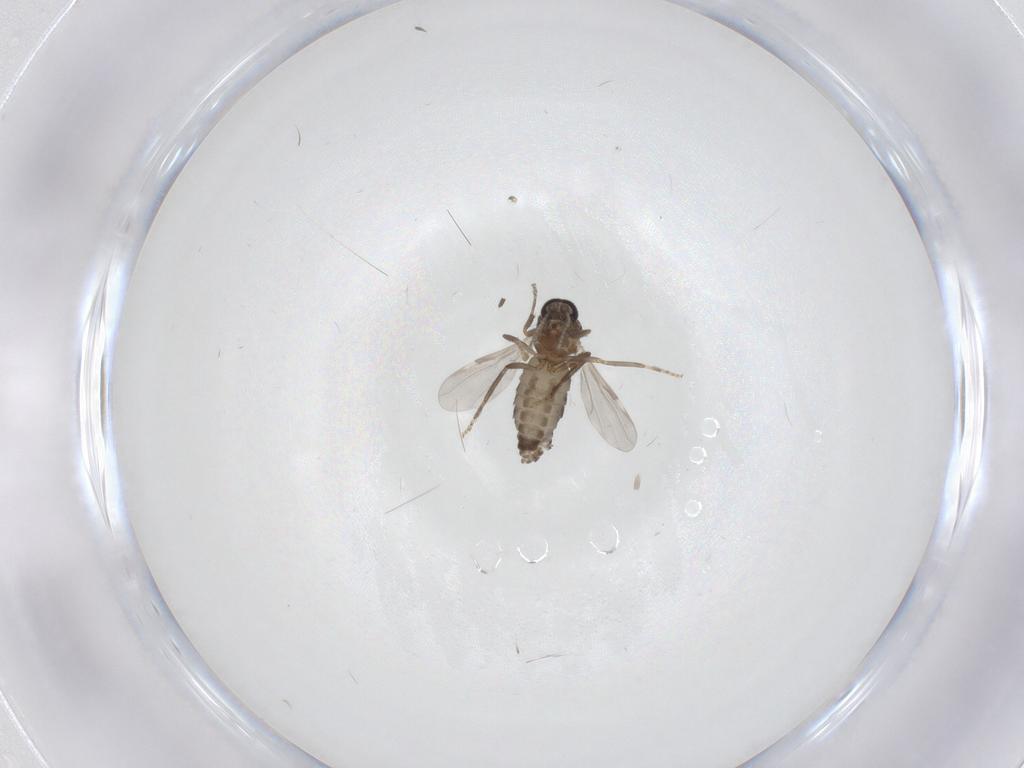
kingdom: Animalia
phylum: Arthropoda
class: Insecta
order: Diptera
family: Ceratopogonidae
